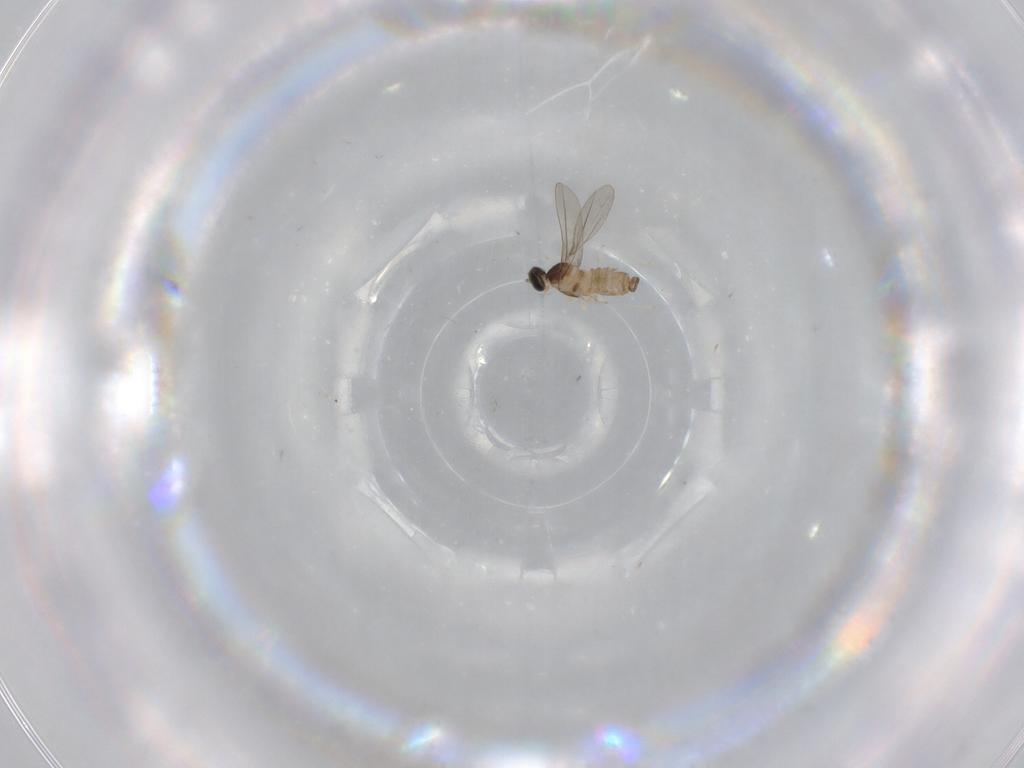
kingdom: Animalia
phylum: Arthropoda
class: Insecta
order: Diptera
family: Cecidomyiidae
